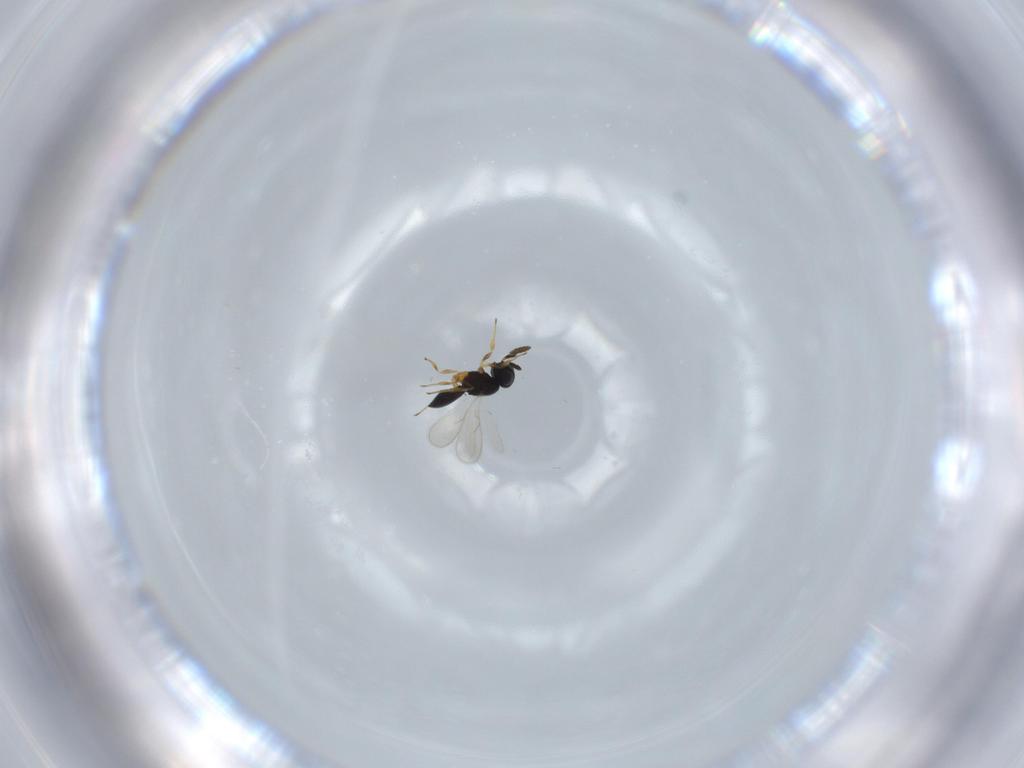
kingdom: Animalia
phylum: Arthropoda
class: Insecta
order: Hymenoptera
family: Scelionidae
